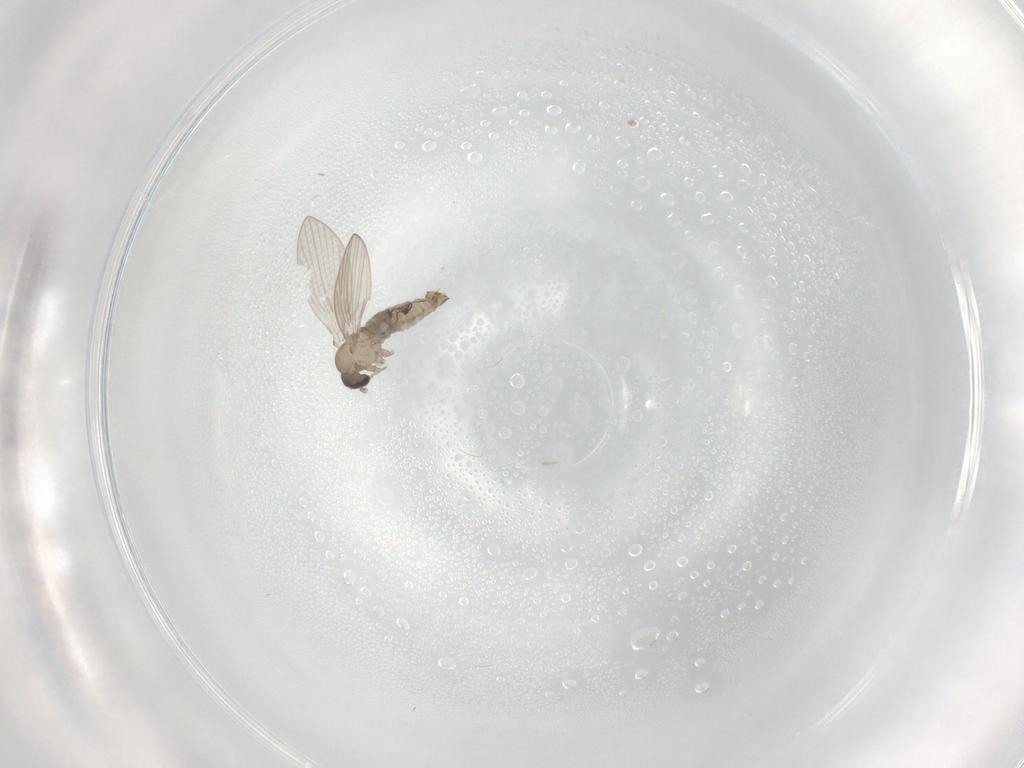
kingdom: Animalia
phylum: Arthropoda
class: Insecta
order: Diptera
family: Psychodidae
